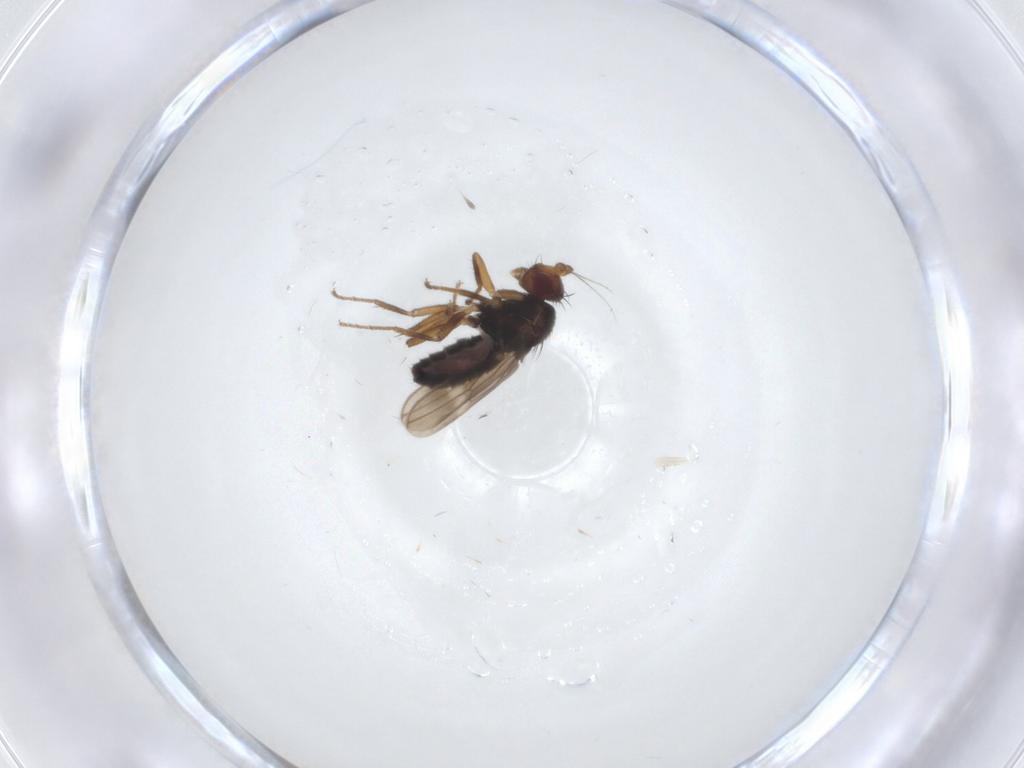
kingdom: Animalia
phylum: Arthropoda
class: Insecta
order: Diptera
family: Sphaeroceridae
